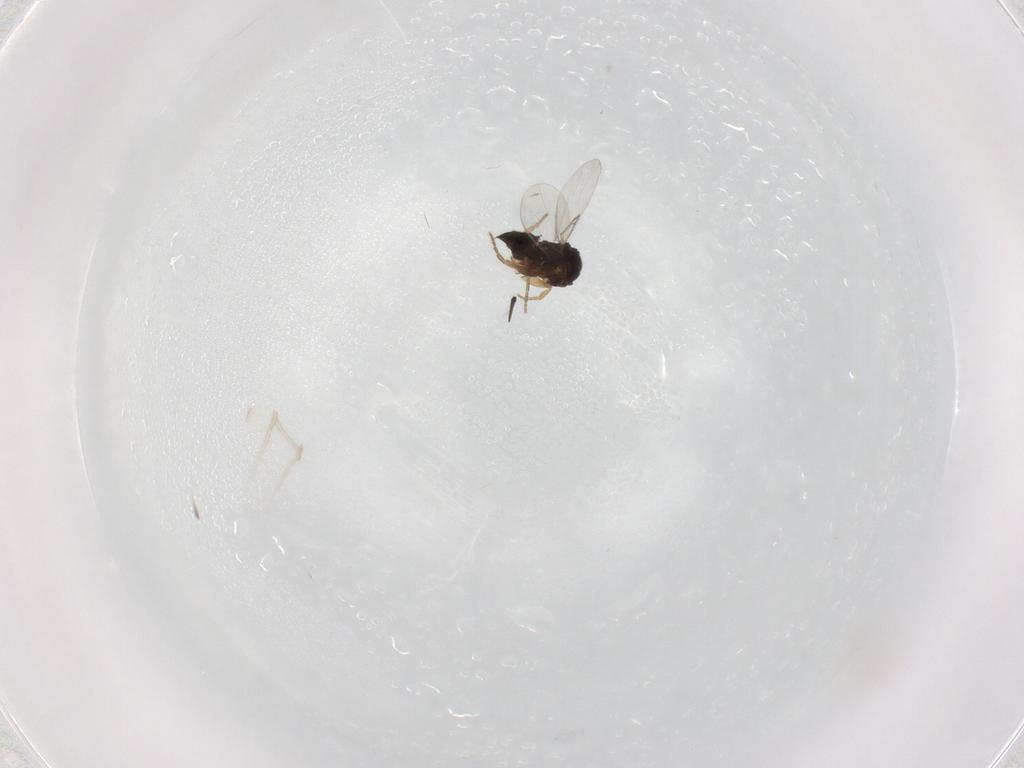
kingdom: Animalia
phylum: Arthropoda
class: Insecta
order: Diptera
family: Phoridae
